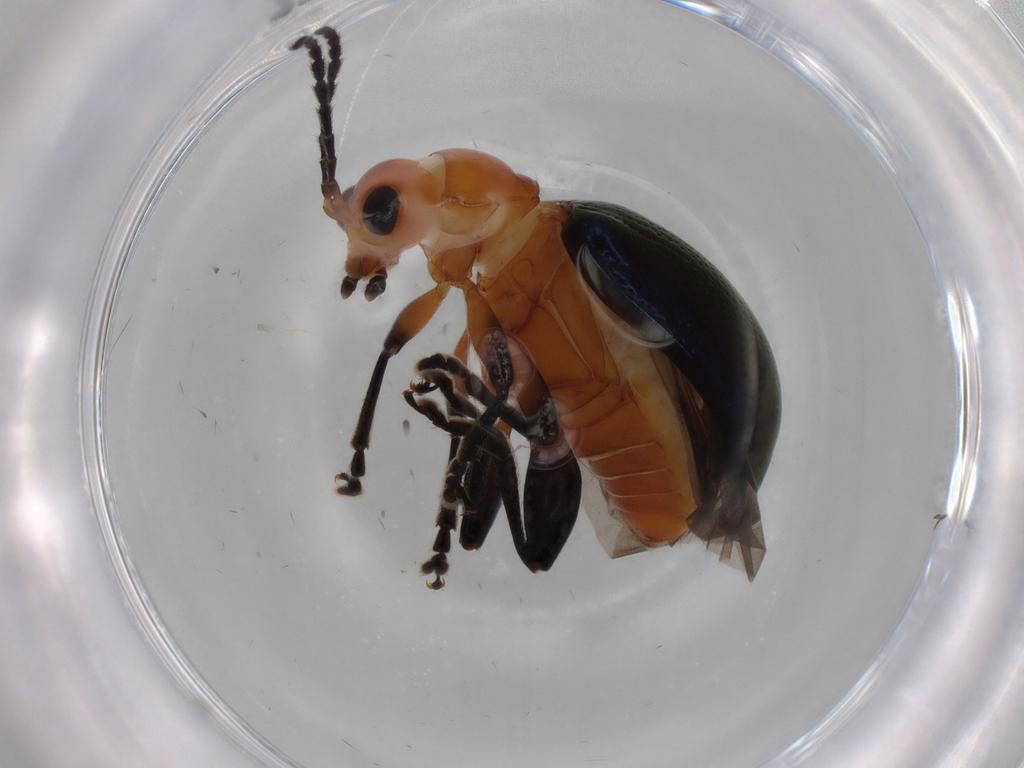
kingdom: Animalia
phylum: Arthropoda
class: Insecta
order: Coleoptera
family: Chrysomelidae
